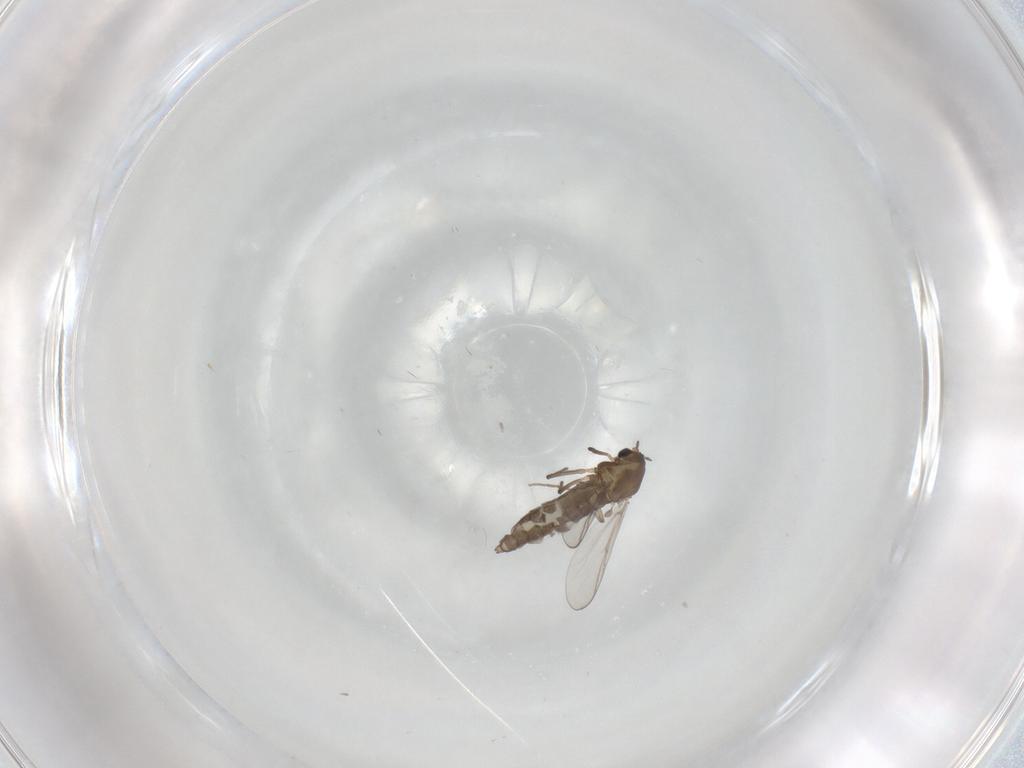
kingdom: Animalia
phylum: Arthropoda
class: Insecta
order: Diptera
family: Chironomidae
